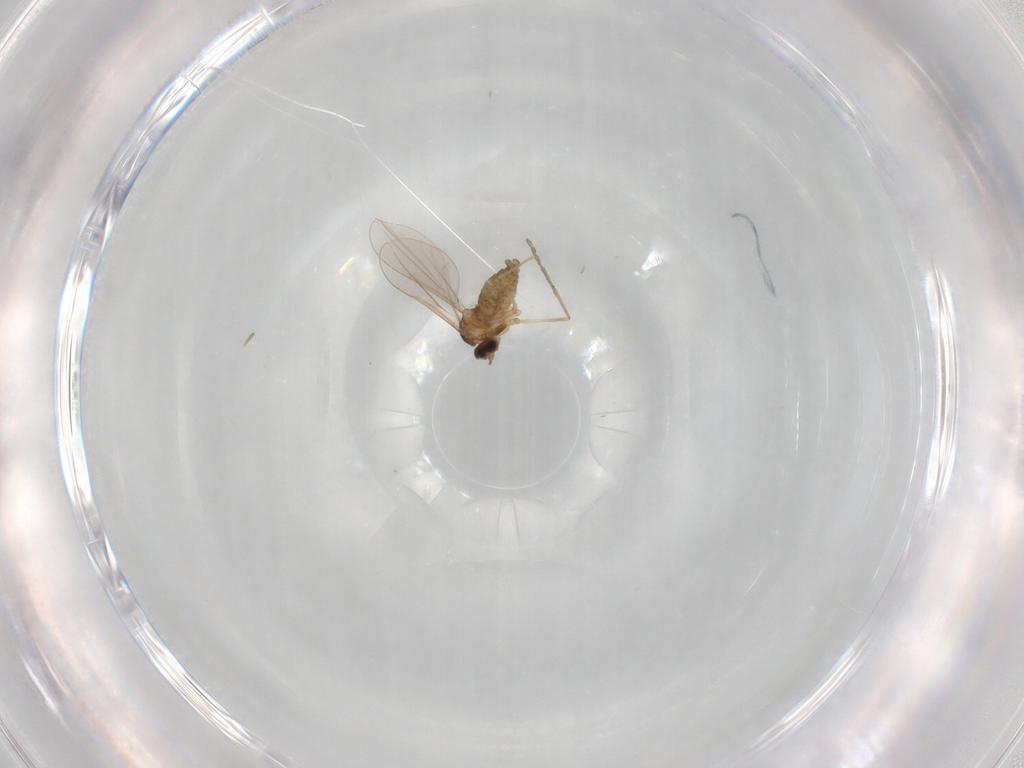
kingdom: Animalia
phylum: Arthropoda
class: Insecta
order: Diptera
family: Cecidomyiidae
